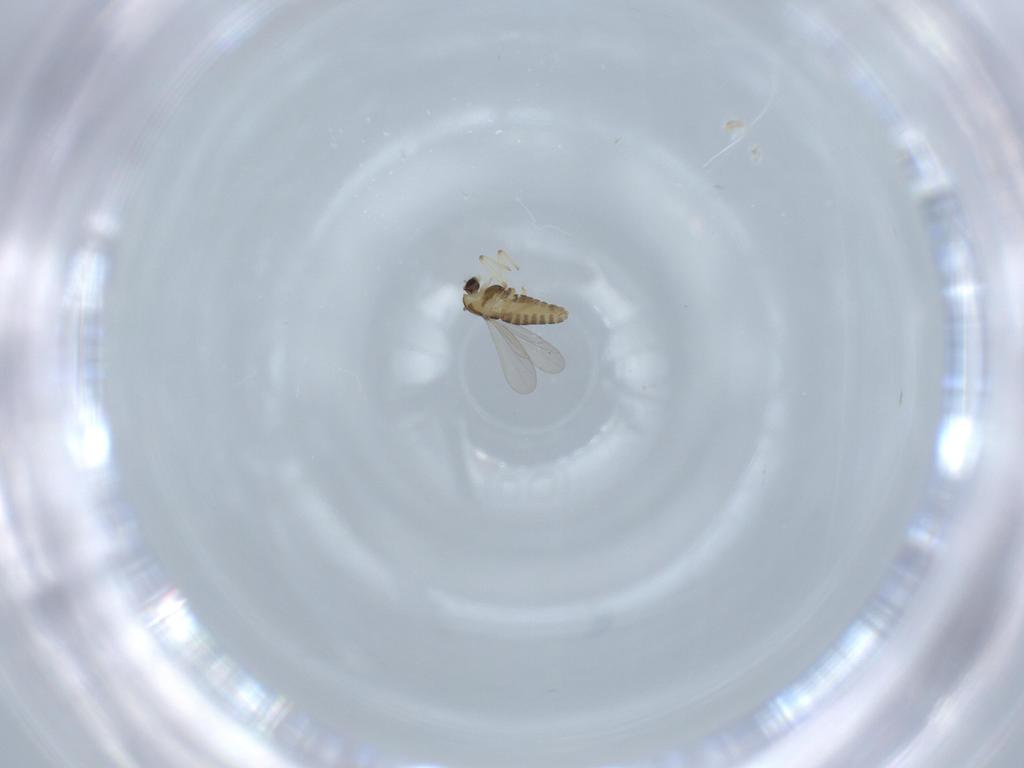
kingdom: Animalia
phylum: Arthropoda
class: Insecta
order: Diptera
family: Chironomidae
